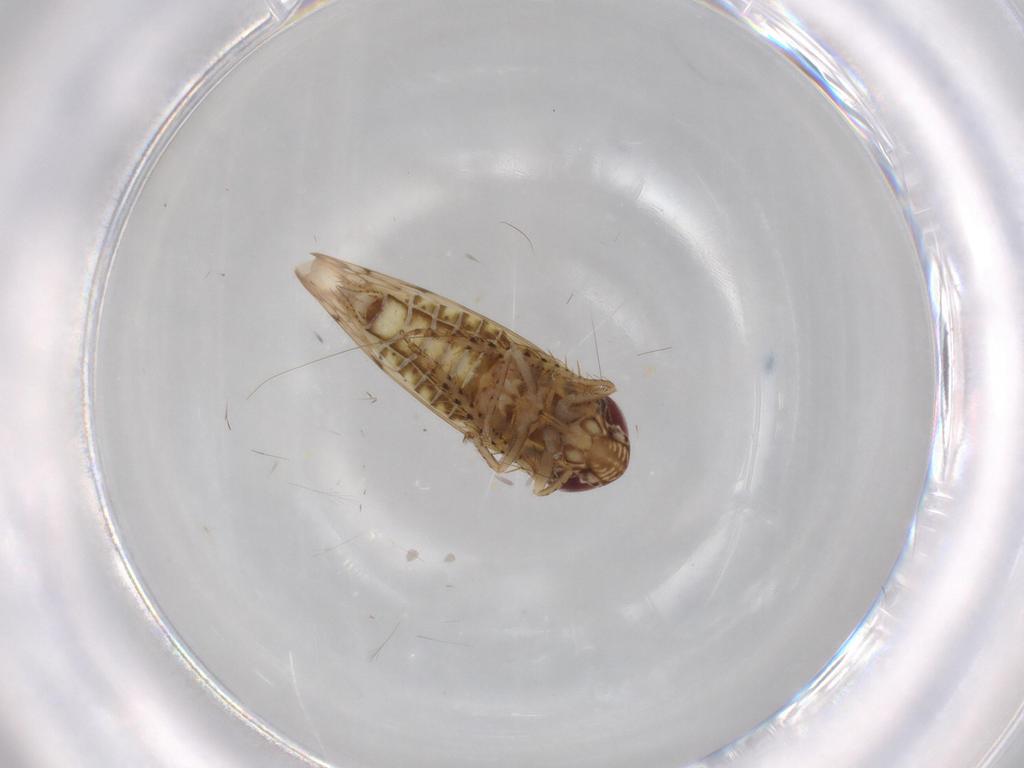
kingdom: Animalia
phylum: Arthropoda
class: Insecta
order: Hemiptera
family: Cicadellidae
